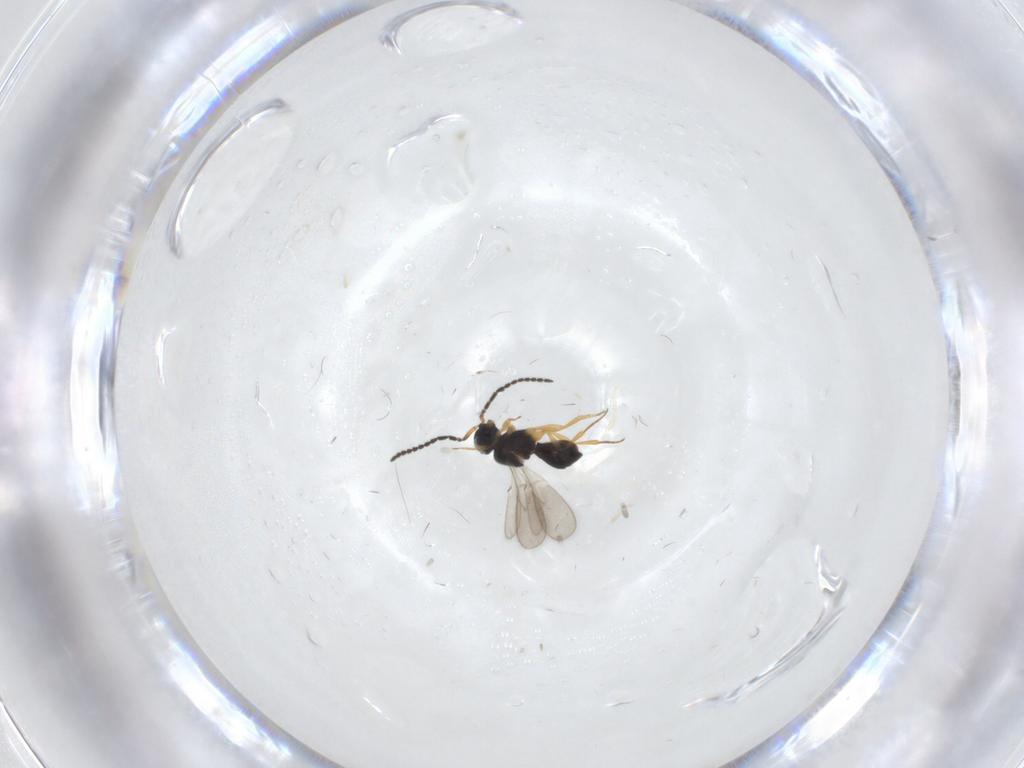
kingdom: Animalia
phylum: Arthropoda
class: Insecta
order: Hymenoptera
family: Scelionidae
